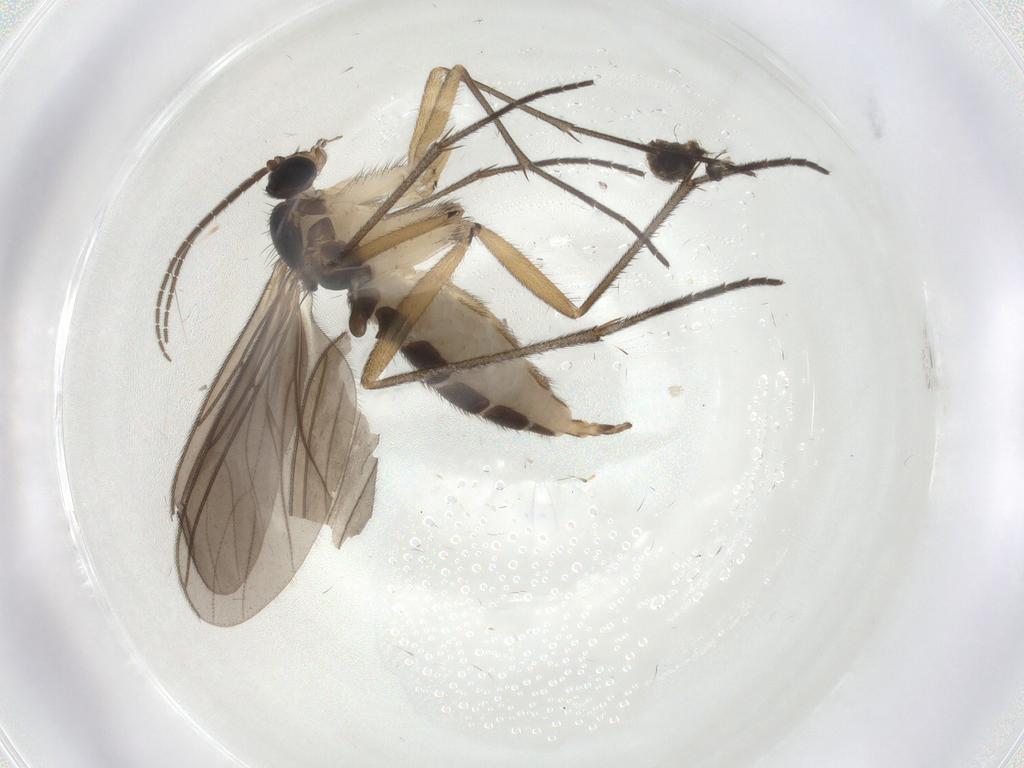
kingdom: Animalia
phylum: Arthropoda
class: Insecta
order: Diptera
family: Sciaridae
